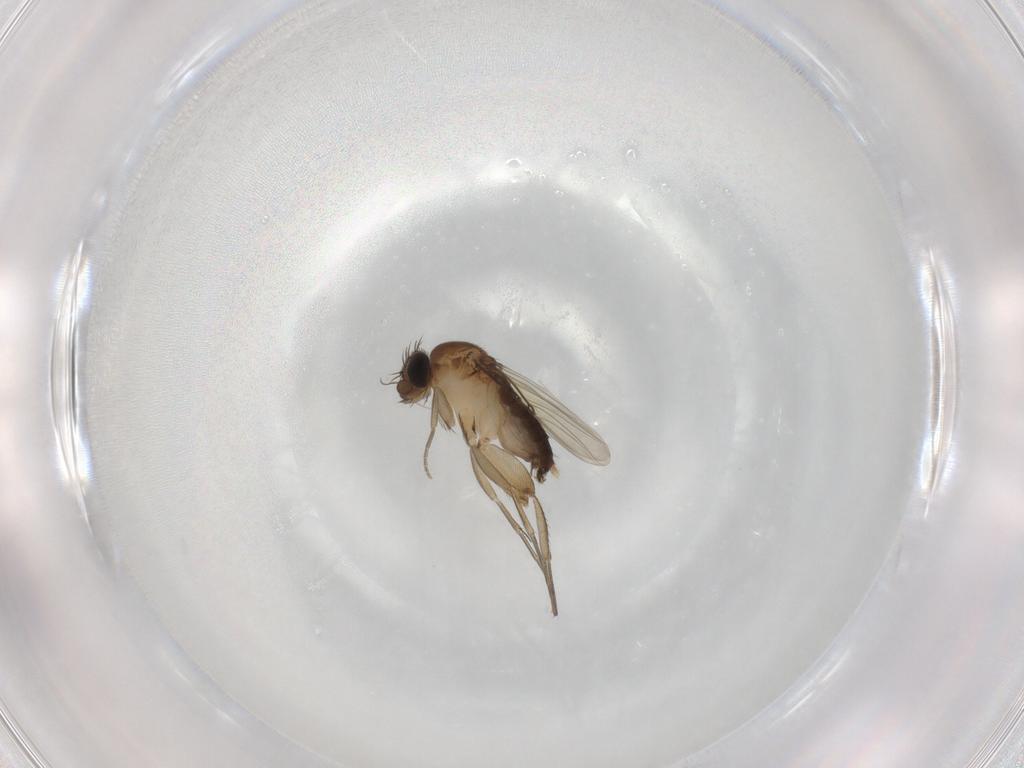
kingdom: Animalia
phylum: Arthropoda
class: Insecta
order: Diptera
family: Phoridae
